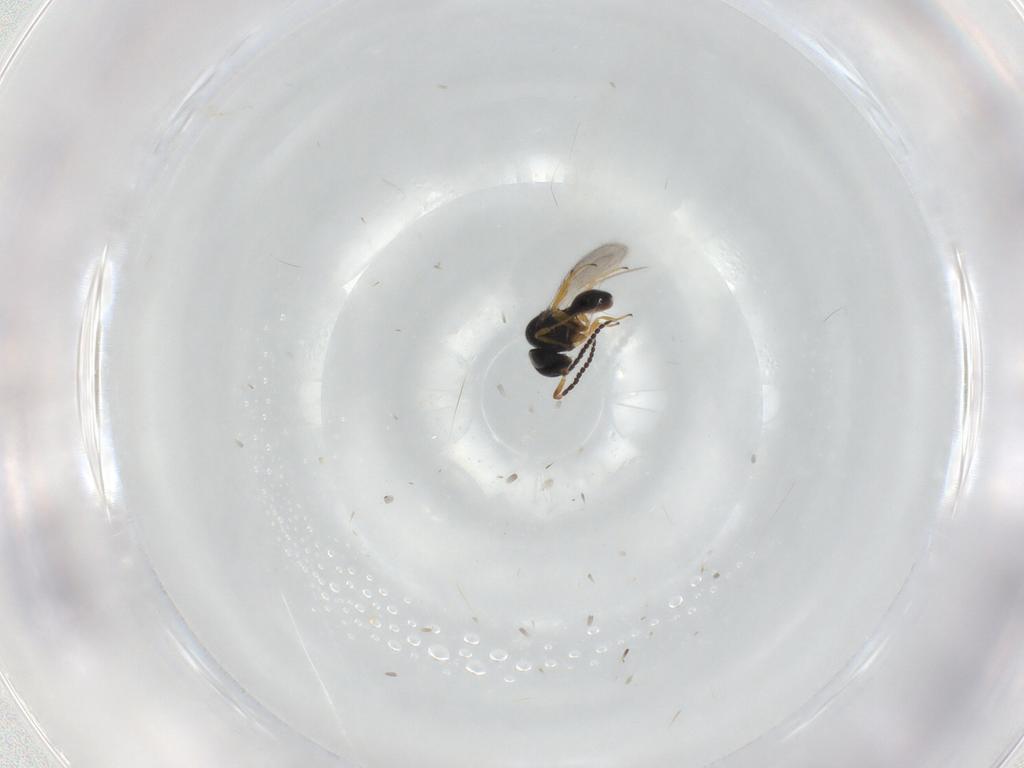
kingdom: Animalia
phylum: Arthropoda
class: Insecta
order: Hymenoptera
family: Scelionidae
